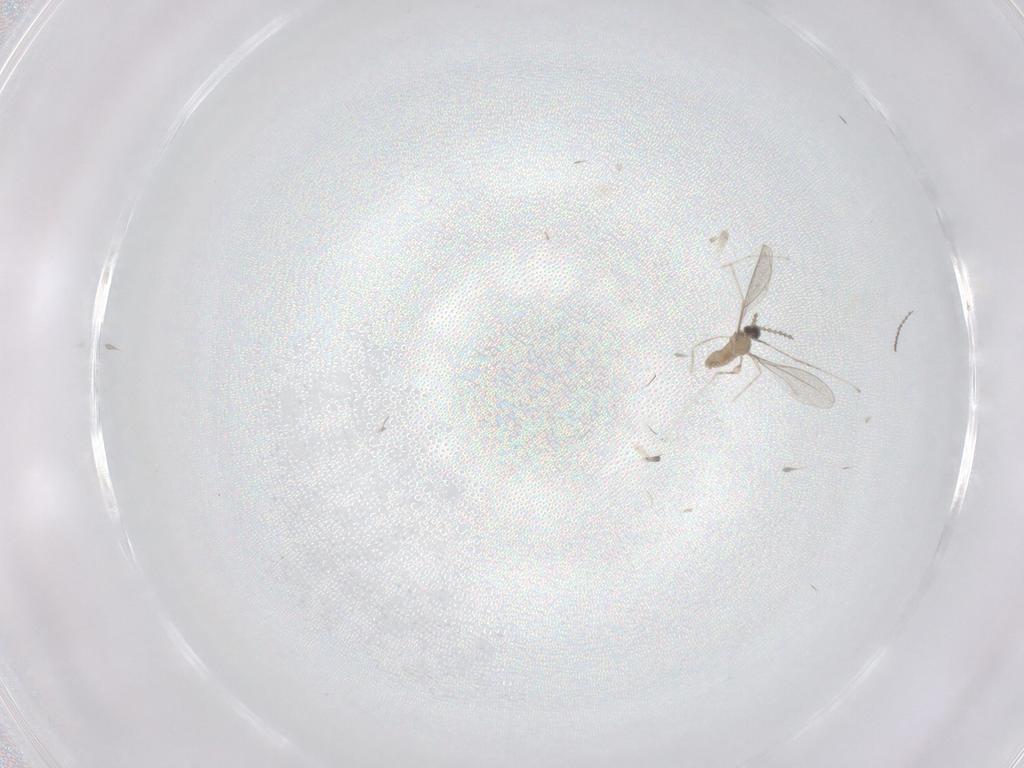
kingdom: Animalia
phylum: Arthropoda
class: Insecta
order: Diptera
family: Cecidomyiidae
